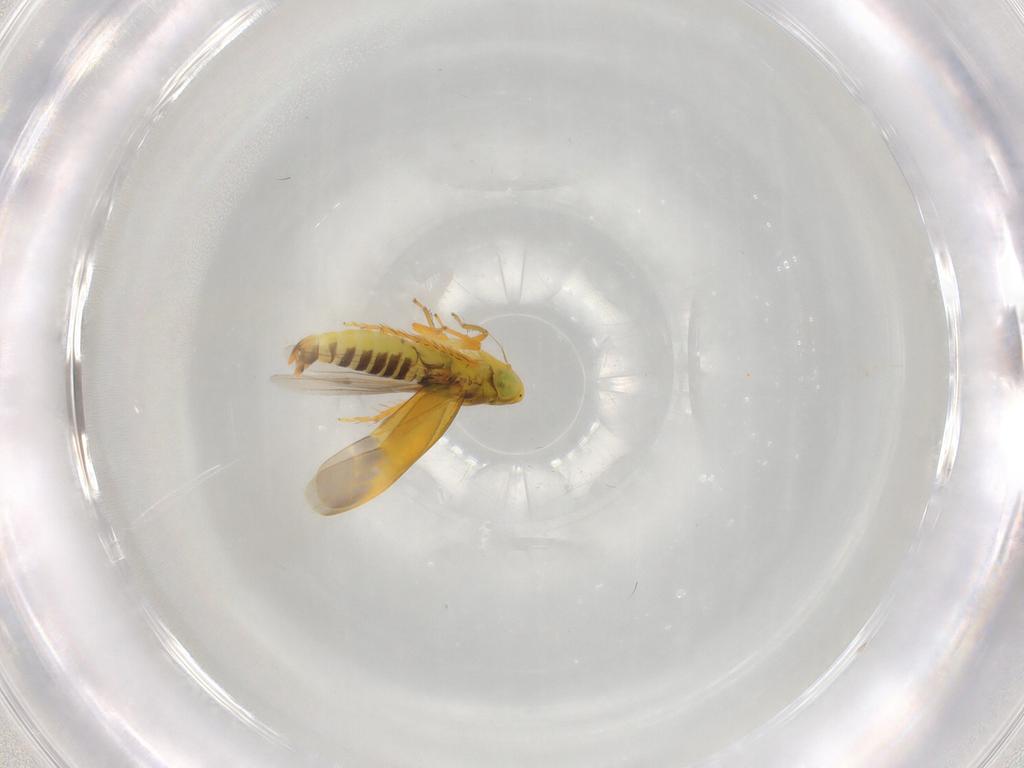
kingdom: Animalia
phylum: Arthropoda
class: Insecta
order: Hemiptera
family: Cicadellidae
